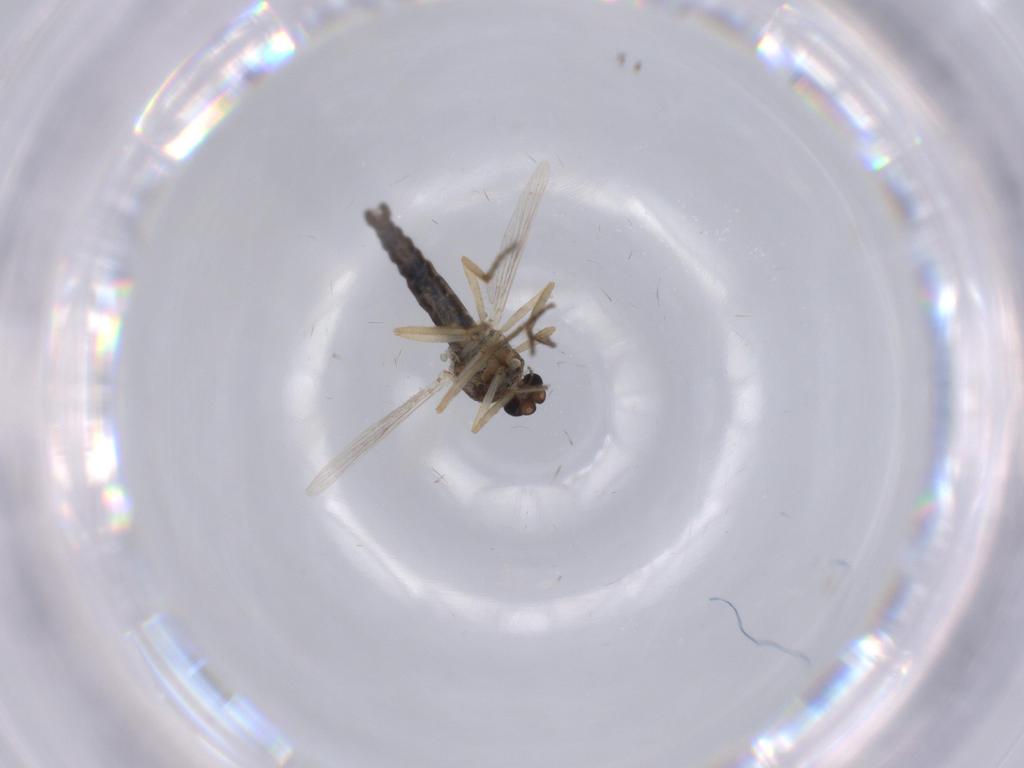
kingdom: Animalia
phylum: Arthropoda
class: Insecta
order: Diptera
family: Ceratopogonidae
